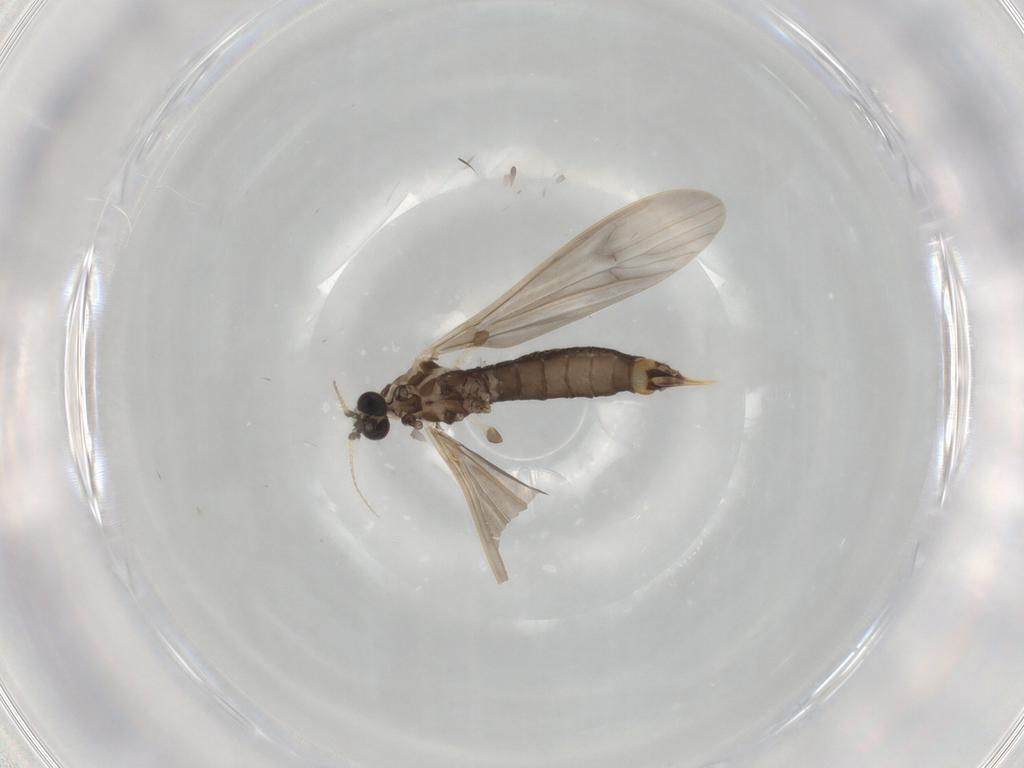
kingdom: Animalia
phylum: Arthropoda
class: Insecta
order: Diptera
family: Limoniidae
